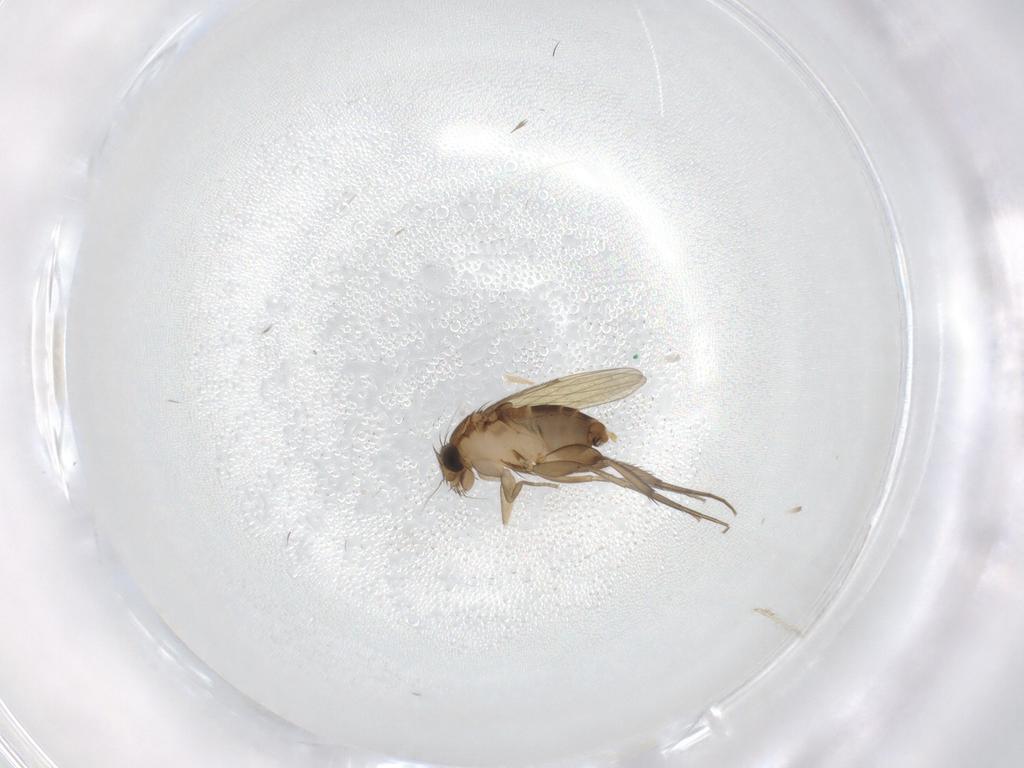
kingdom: Animalia
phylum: Arthropoda
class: Insecta
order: Diptera
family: Phoridae
